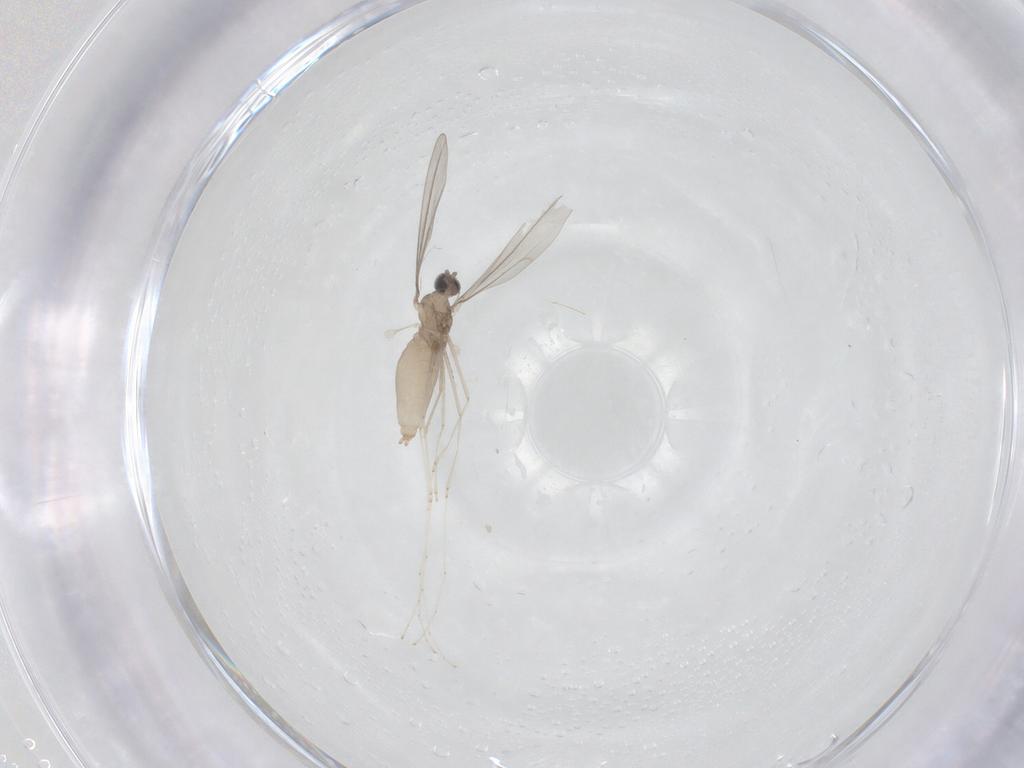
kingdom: Animalia
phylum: Arthropoda
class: Insecta
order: Diptera
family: Cecidomyiidae
